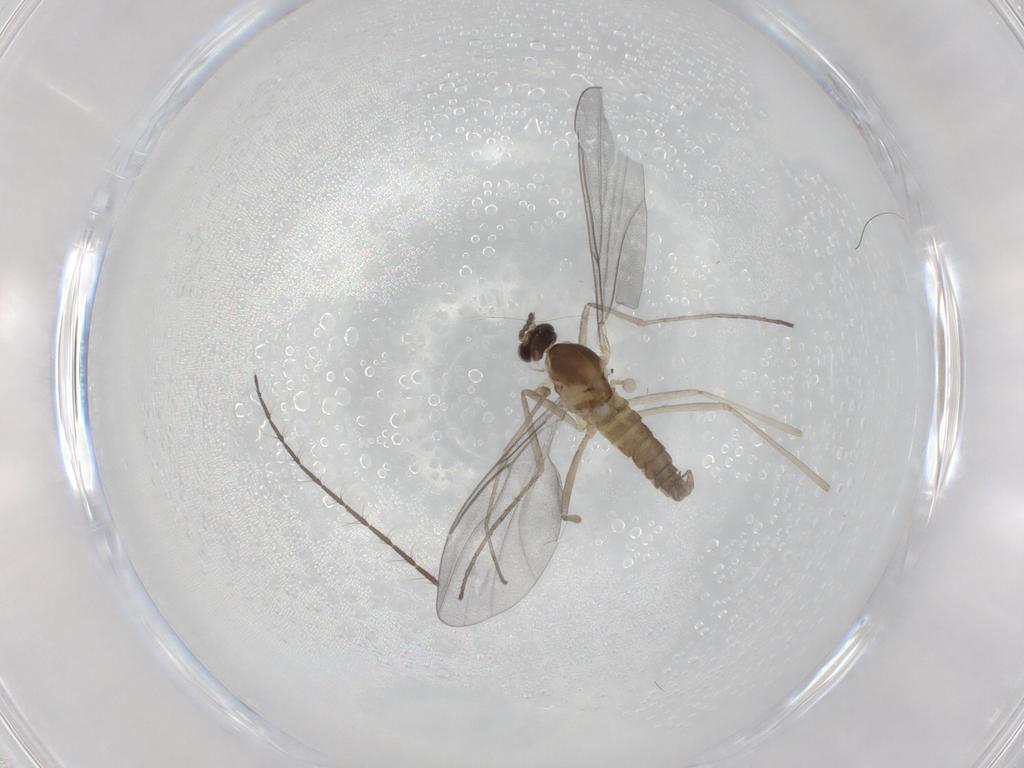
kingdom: Animalia
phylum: Arthropoda
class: Insecta
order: Diptera
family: Cecidomyiidae
